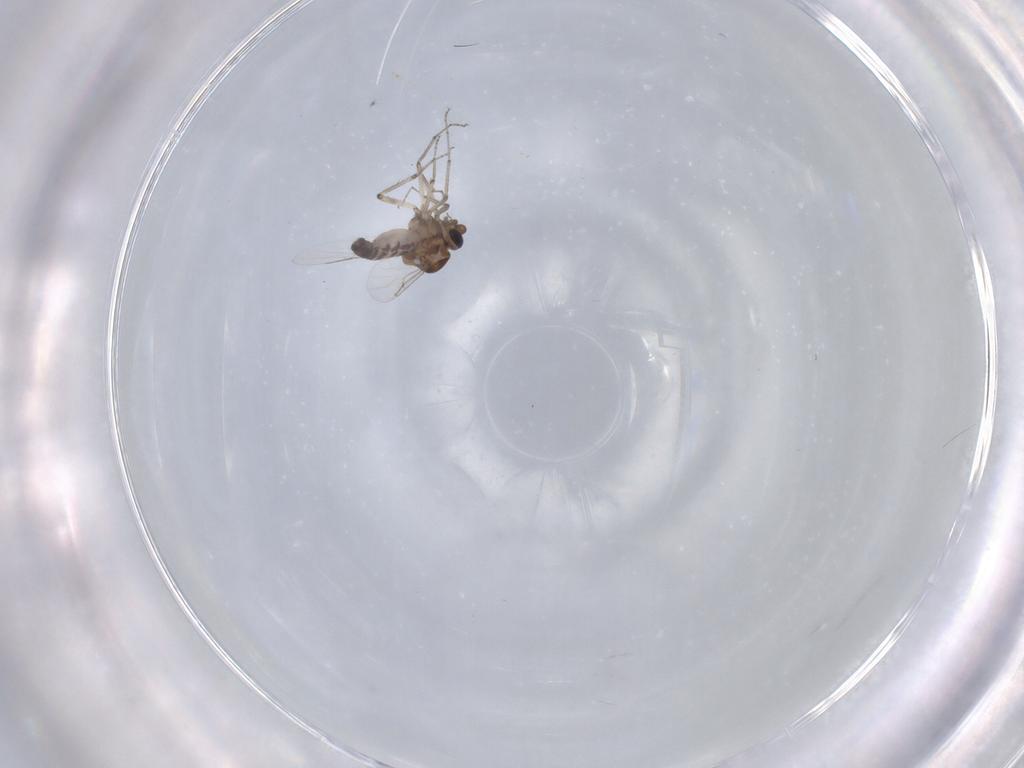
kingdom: Animalia
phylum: Arthropoda
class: Insecta
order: Diptera
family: Ceratopogonidae
